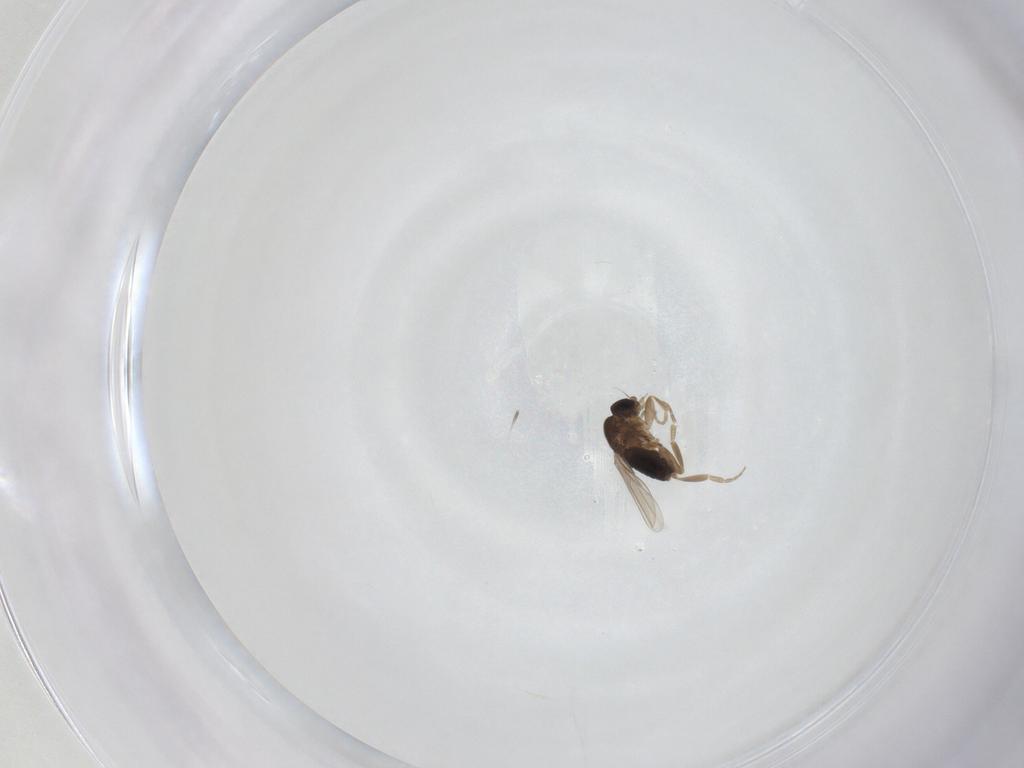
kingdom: Animalia
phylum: Arthropoda
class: Insecta
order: Diptera
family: Phoridae
